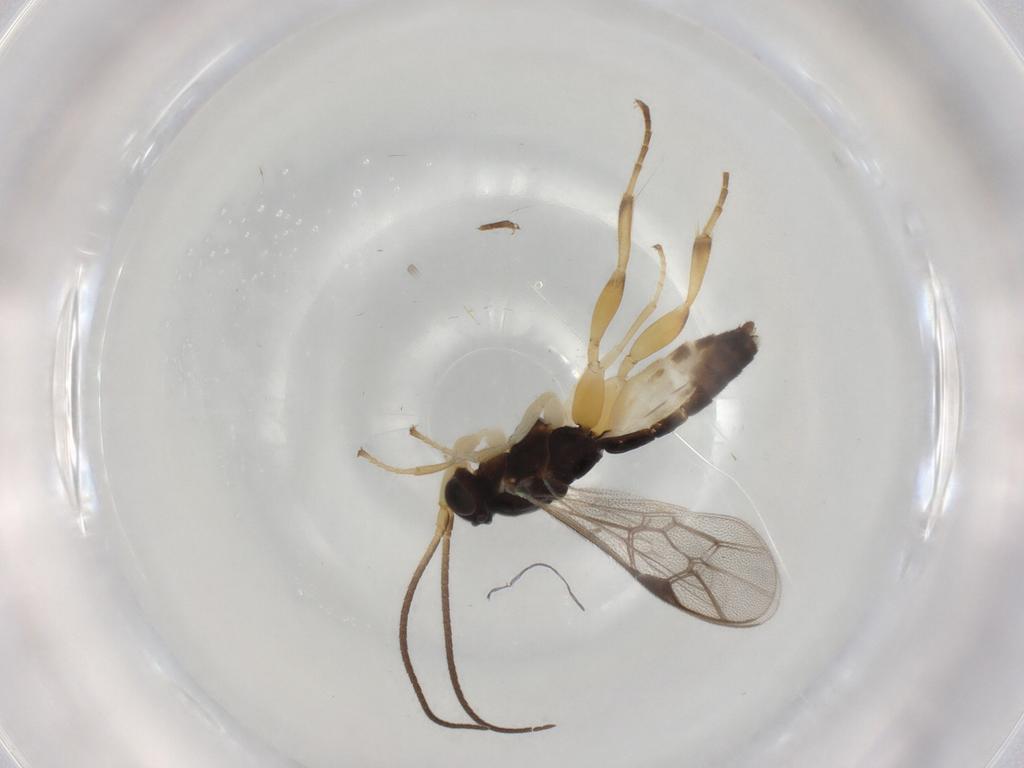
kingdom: Animalia
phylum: Arthropoda
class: Insecta
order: Hymenoptera
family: Ichneumonidae
